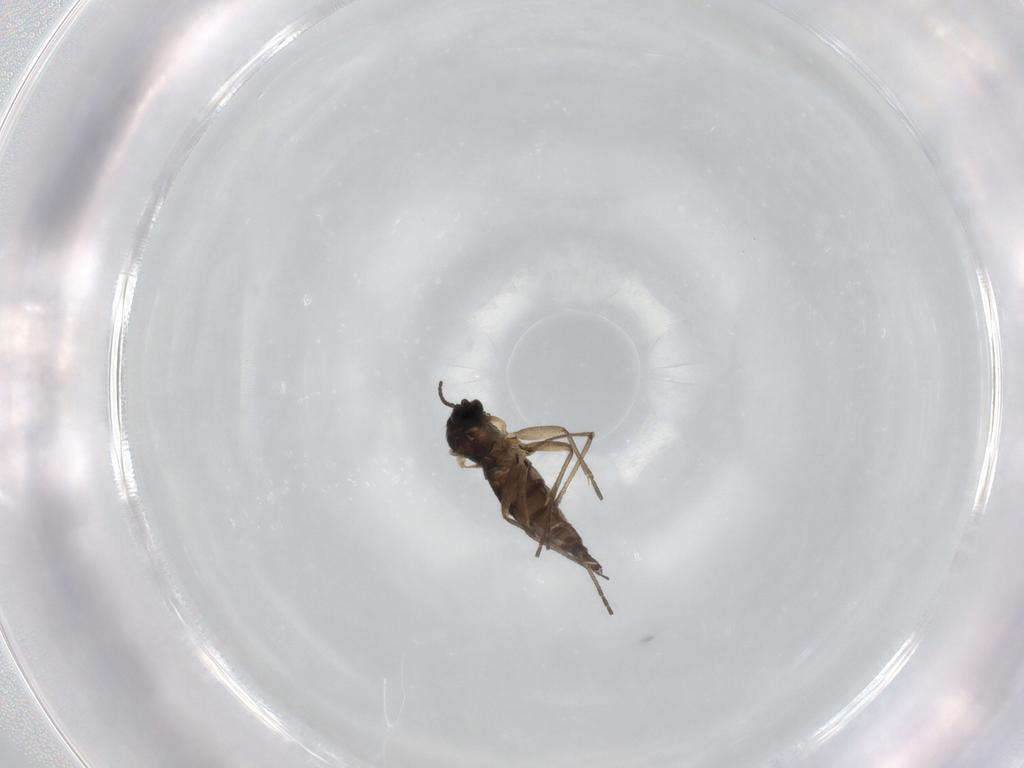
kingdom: Animalia
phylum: Arthropoda
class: Insecta
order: Diptera
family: Sciaridae
